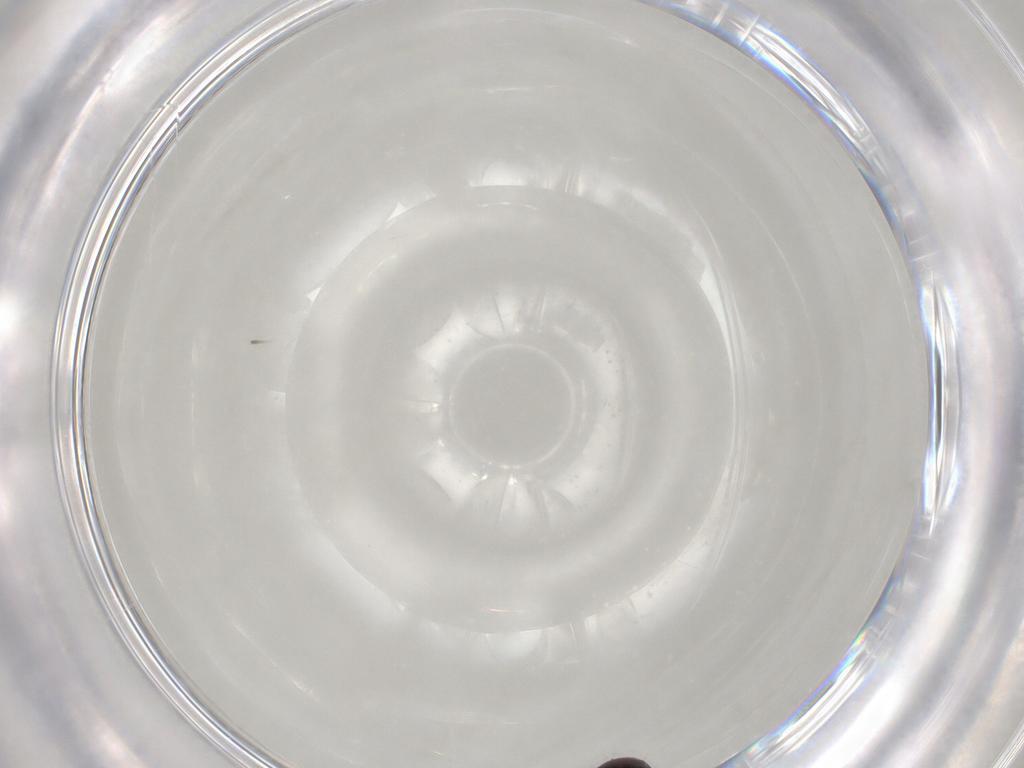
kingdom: Animalia
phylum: Arthropoda
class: Arachnida
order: Sarcoptiformes
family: Galumnidae
